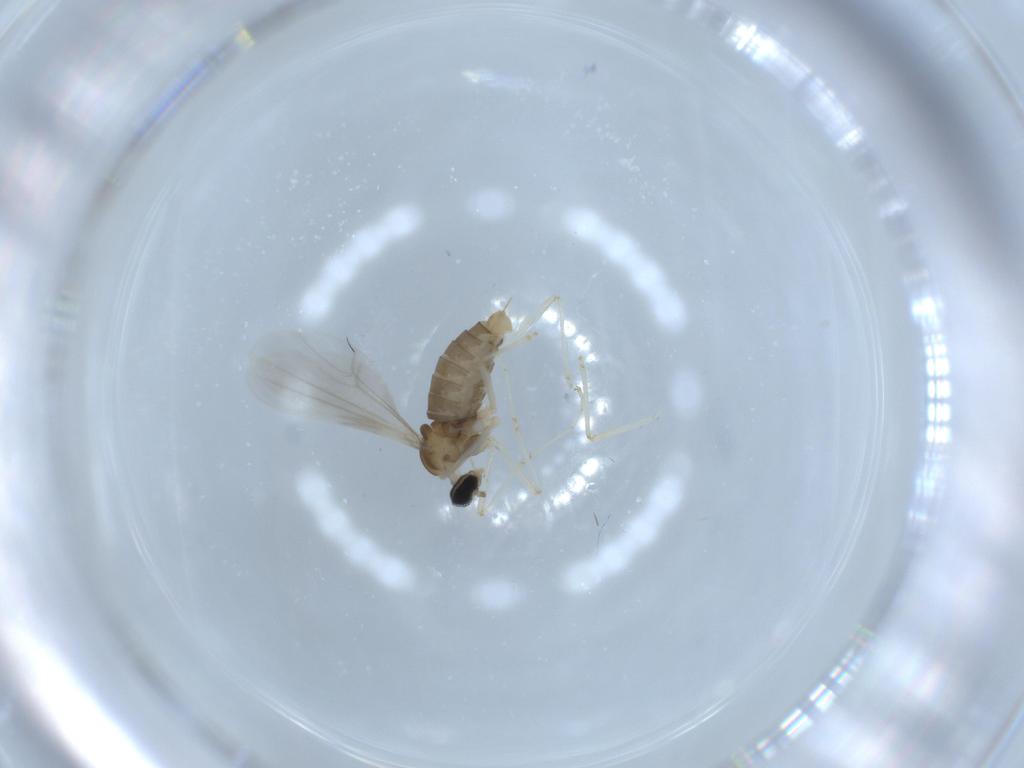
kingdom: Animalia
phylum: Arthropoda
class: Insecta
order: Diptera
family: Cecidomyiidae
